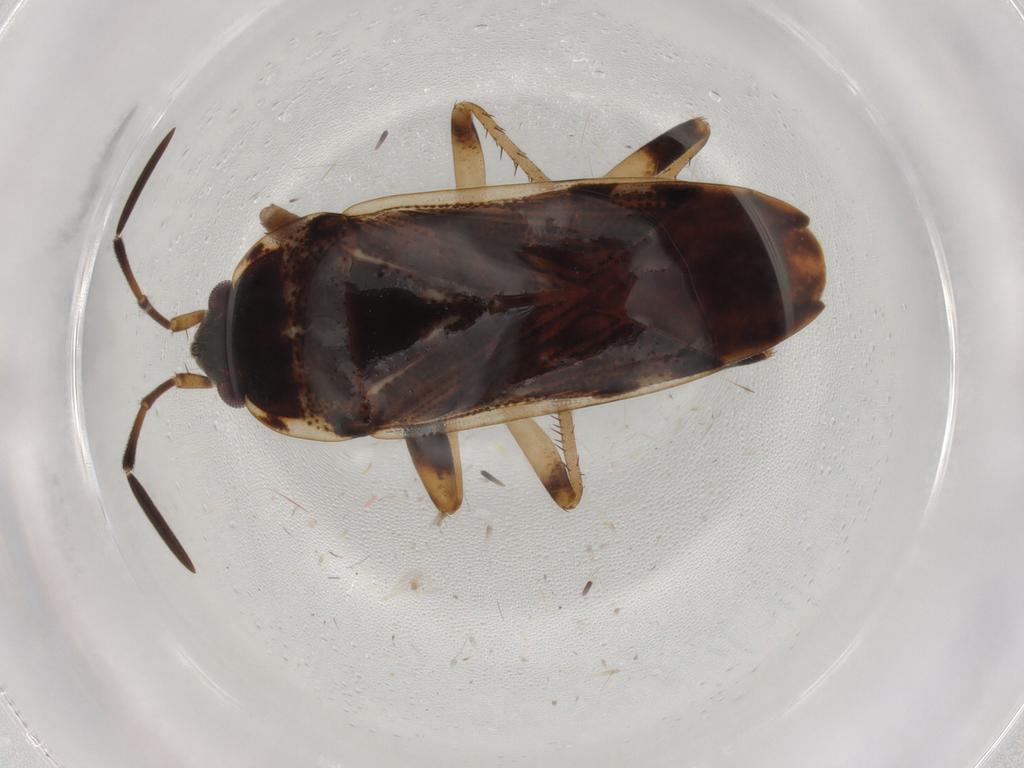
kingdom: Animalia
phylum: Arthropoda
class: Insecta
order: Hemiptera
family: Rhyparochromidae
